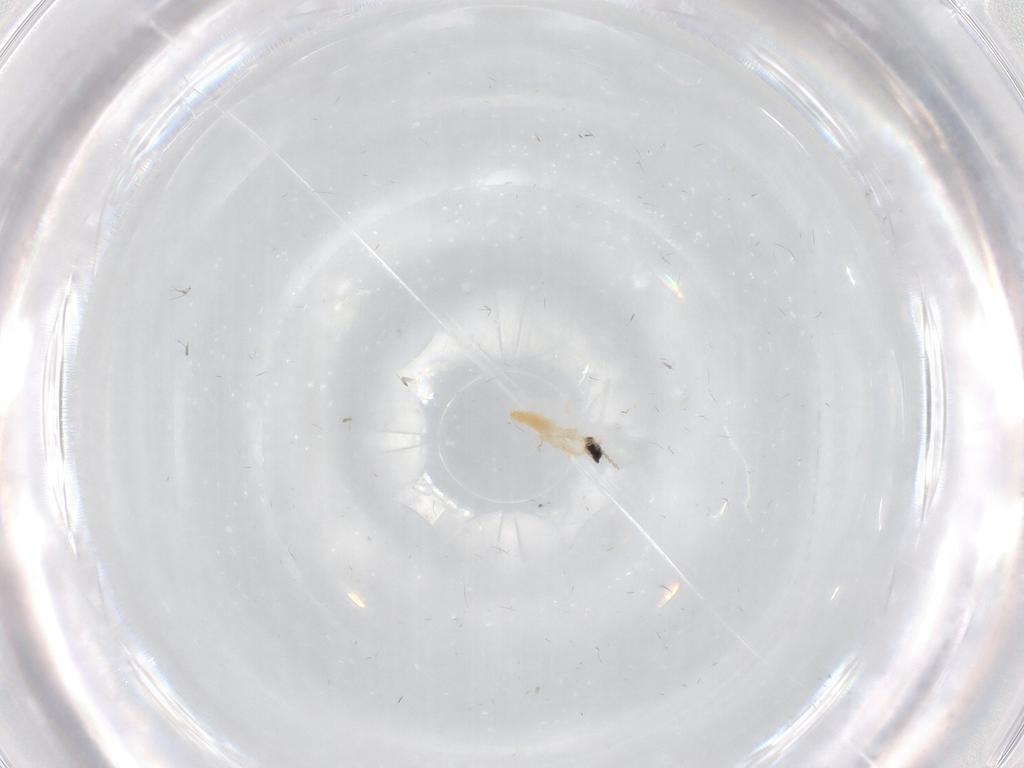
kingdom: Animalia
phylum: Arthropoda
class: Insecta
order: Diptera
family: Cecidomyiidae
